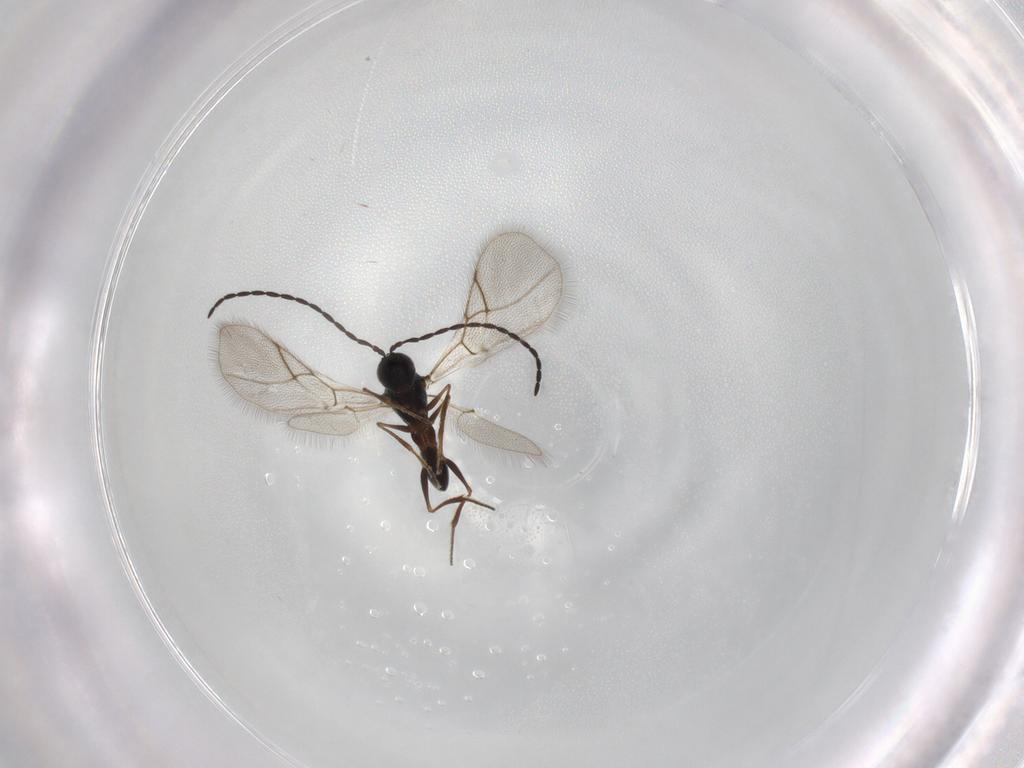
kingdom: Animalia
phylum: Arthropoda
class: Insecta
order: Hymenoptera
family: Figitidae
